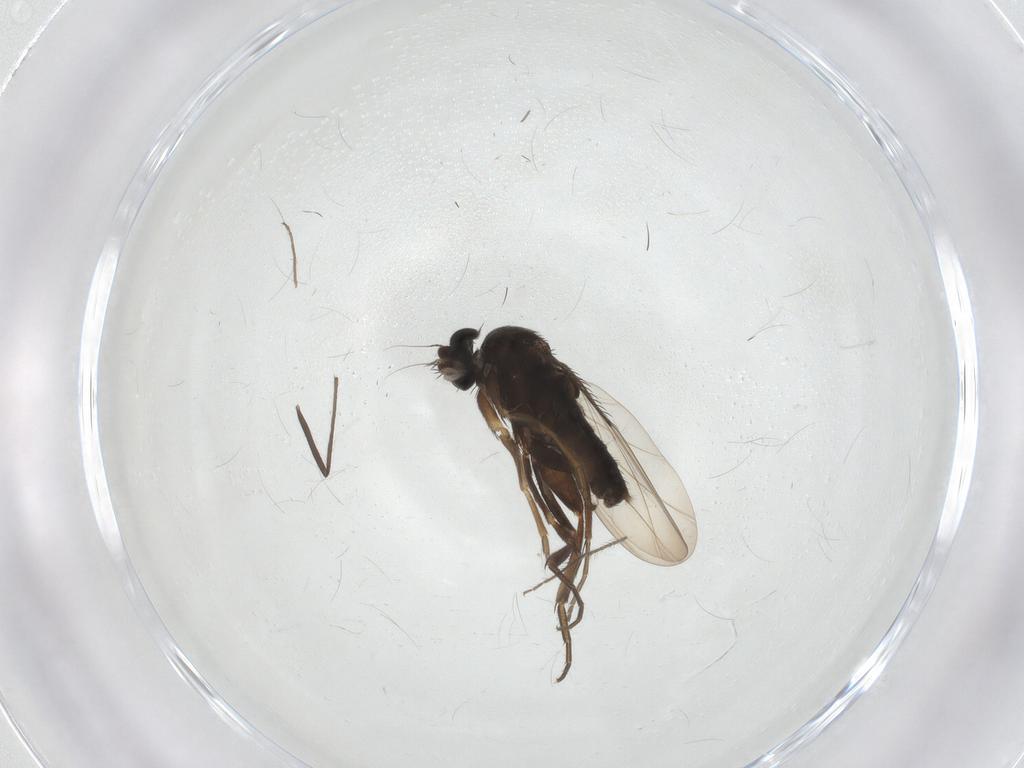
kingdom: Animalia
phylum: Arthropoda
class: Insecta
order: Diptera
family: Phoridae
